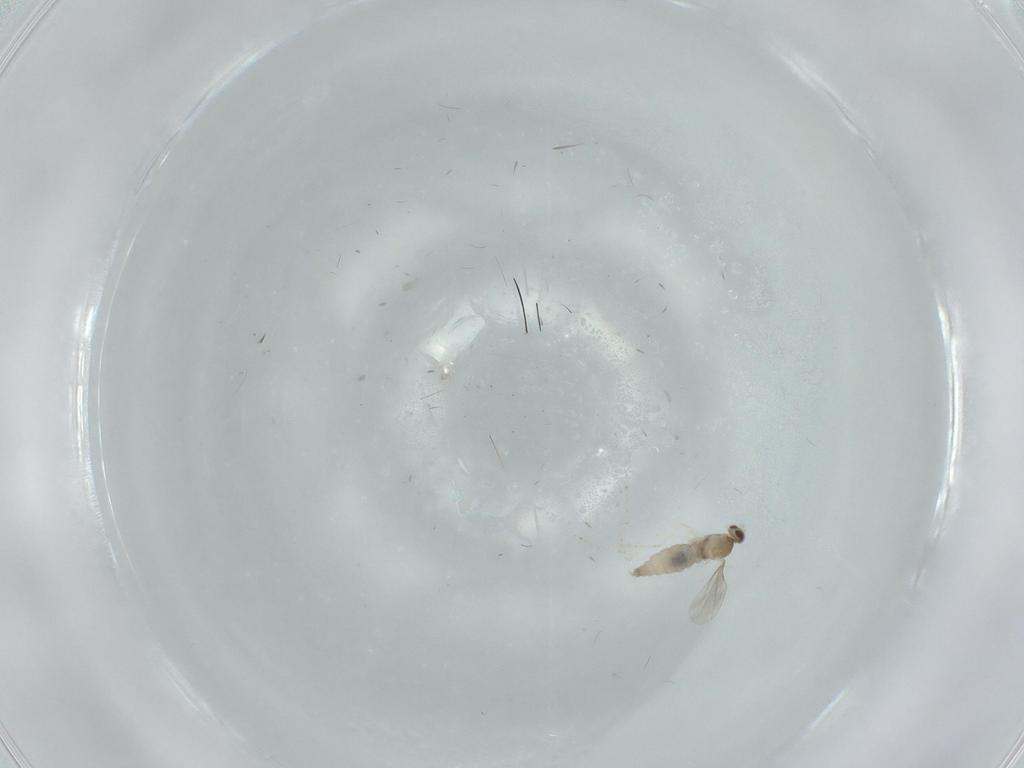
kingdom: Animalia
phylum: Arthropoda
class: Insecta
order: Diptera
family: Cecidomyiidae
